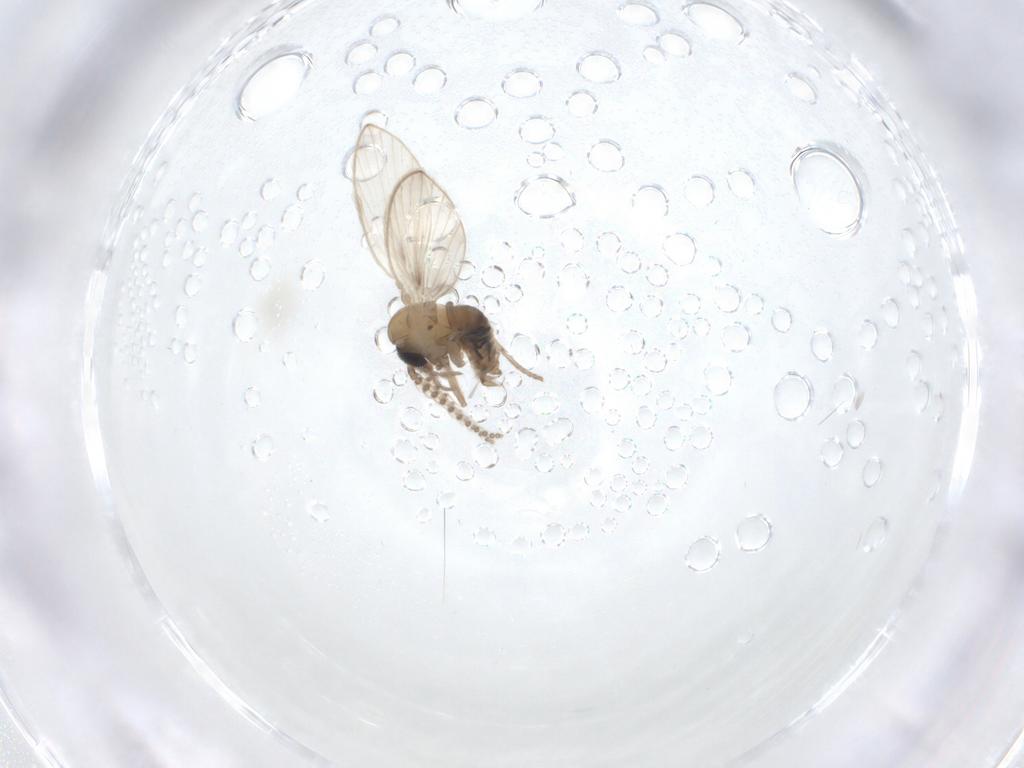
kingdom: Animalia
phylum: Arthropoda
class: Insecta
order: Diptera
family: Psychodidae
